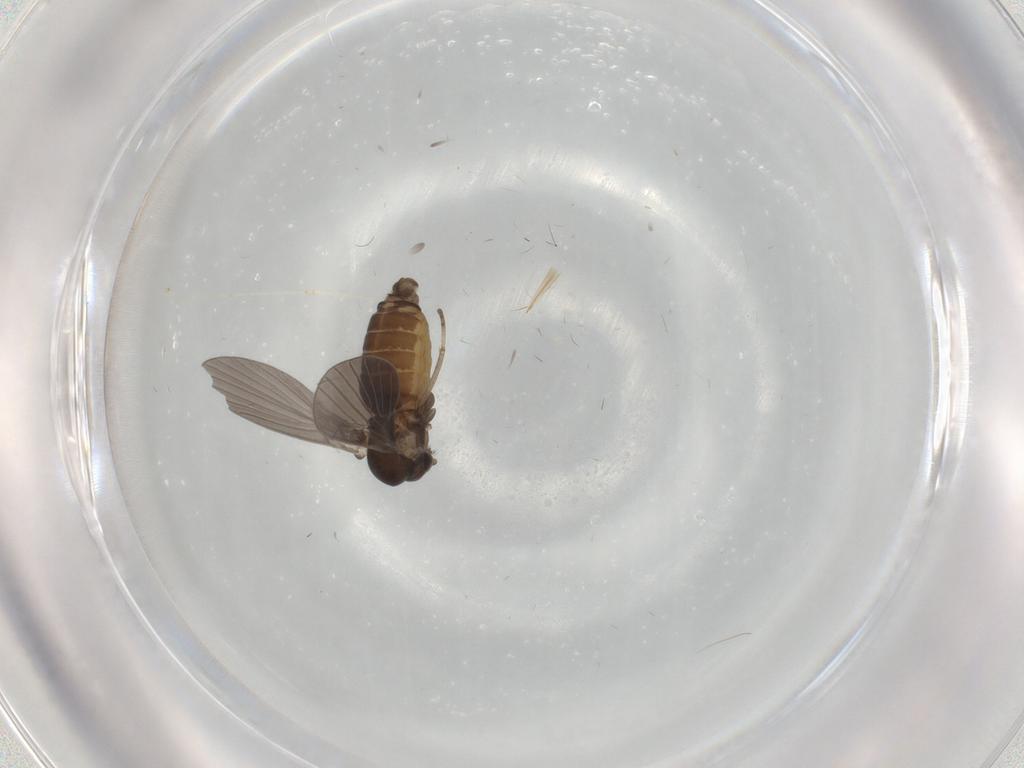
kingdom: Animalia
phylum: Arthropoda
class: Insecta
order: Diptera
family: Psychodidae
